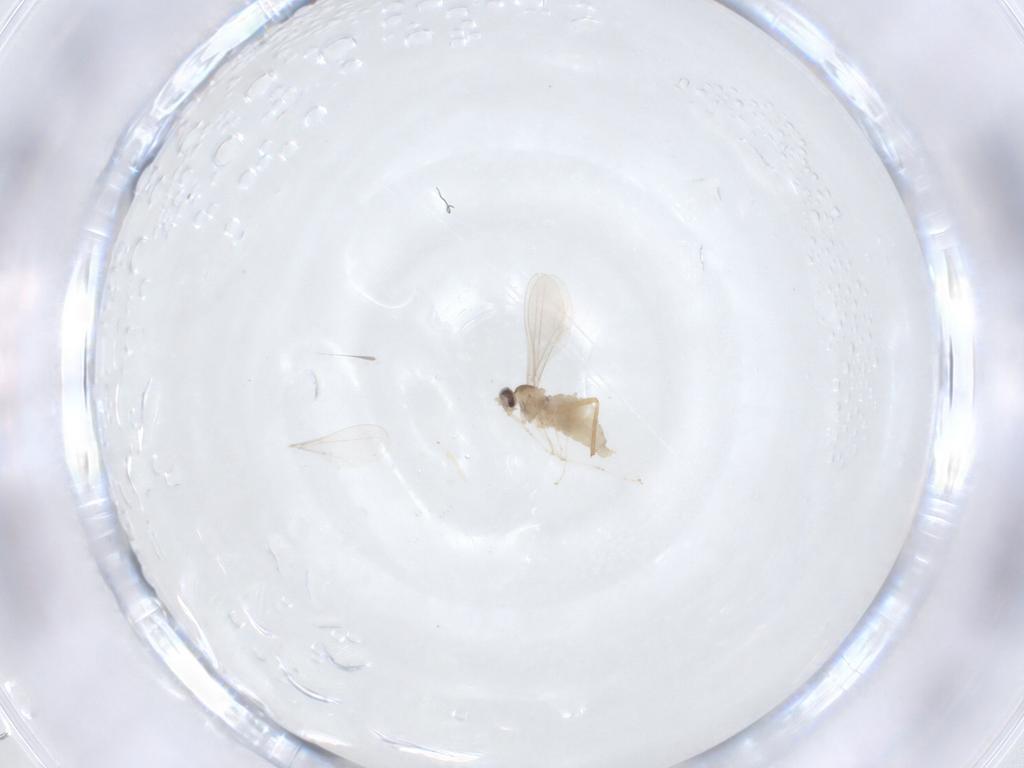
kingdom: Animalia
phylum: Arthropoda
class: Insecta
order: Diptera
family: Cecidomyiidae
